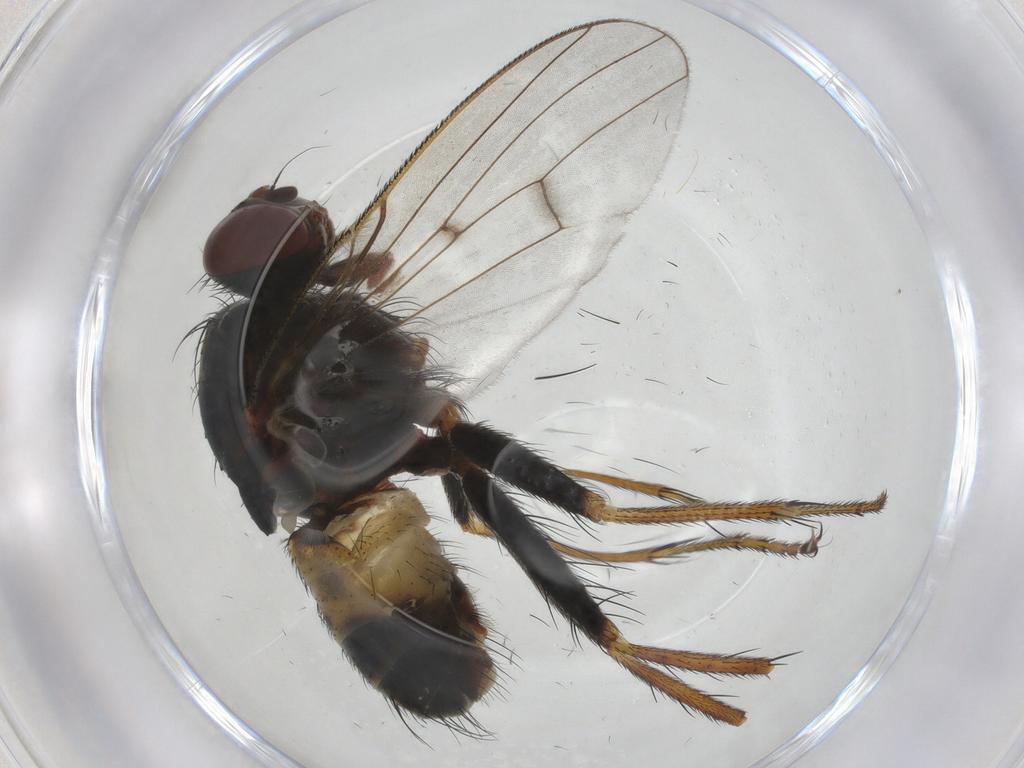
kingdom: Animalia
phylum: Arthropoda
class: Insecta
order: Diptera
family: Muscidae
